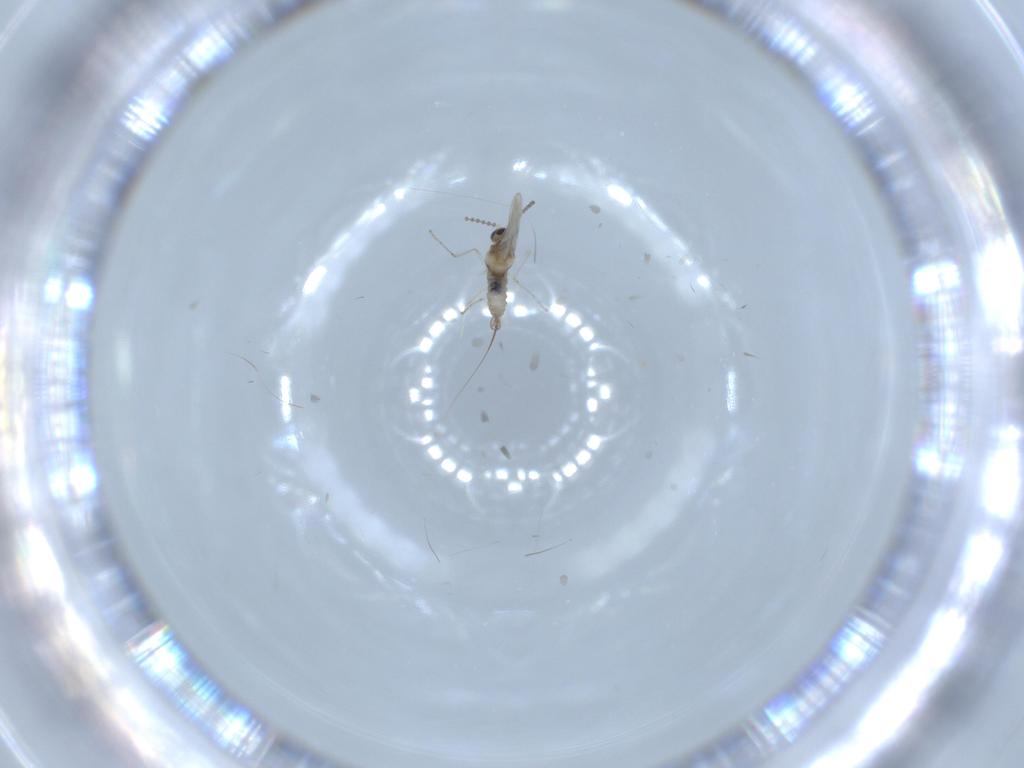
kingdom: Animalia
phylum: Arthropoda
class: Insecta
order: Diptera
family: Cecidomyiidae
